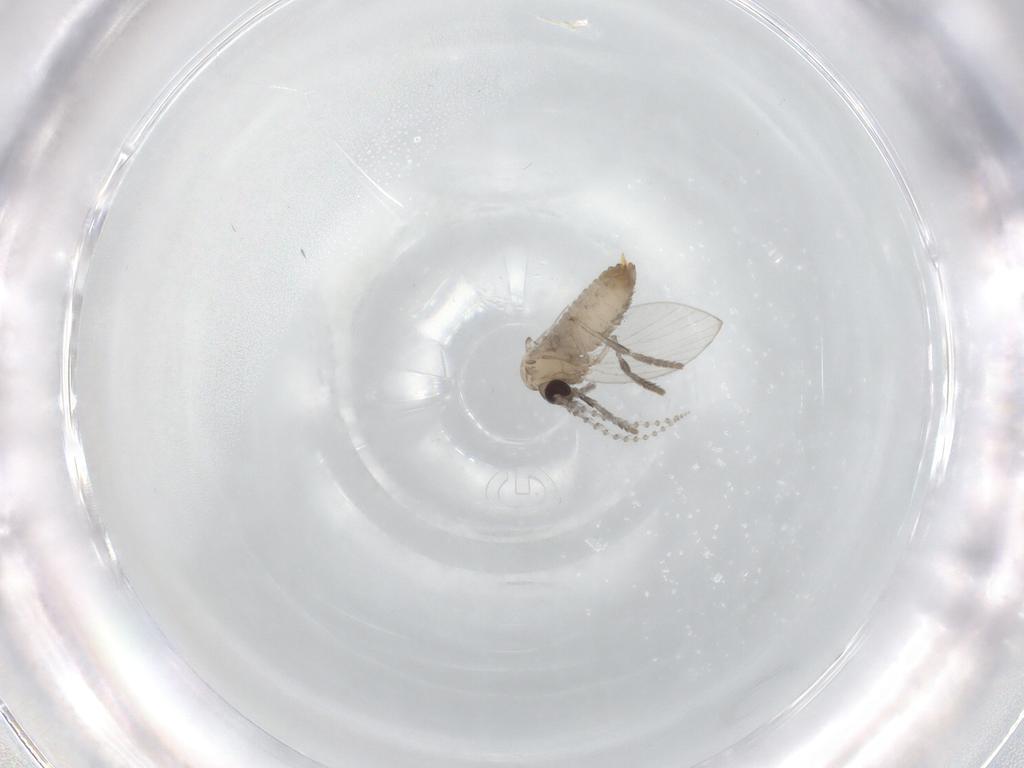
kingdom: Animalia
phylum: Arthropoda
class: Insecta
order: Diptera
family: Psychodidae
